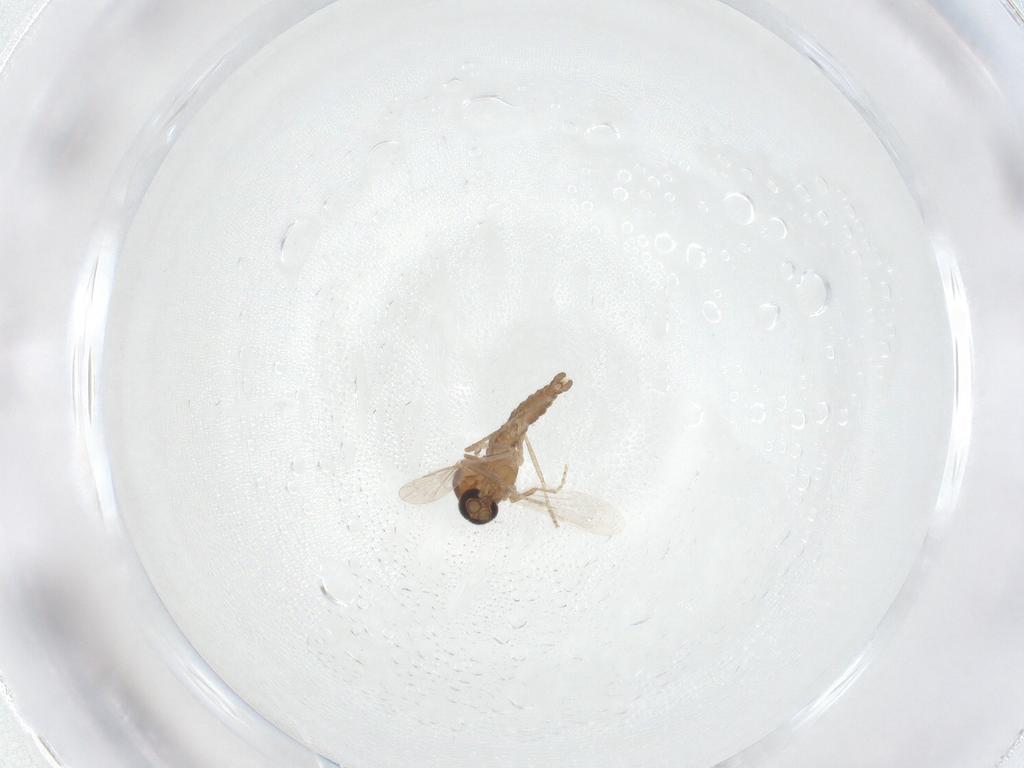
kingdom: Animalia
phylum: Arthropoda
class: Insecta
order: Diptera
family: Ceratopogonidae
